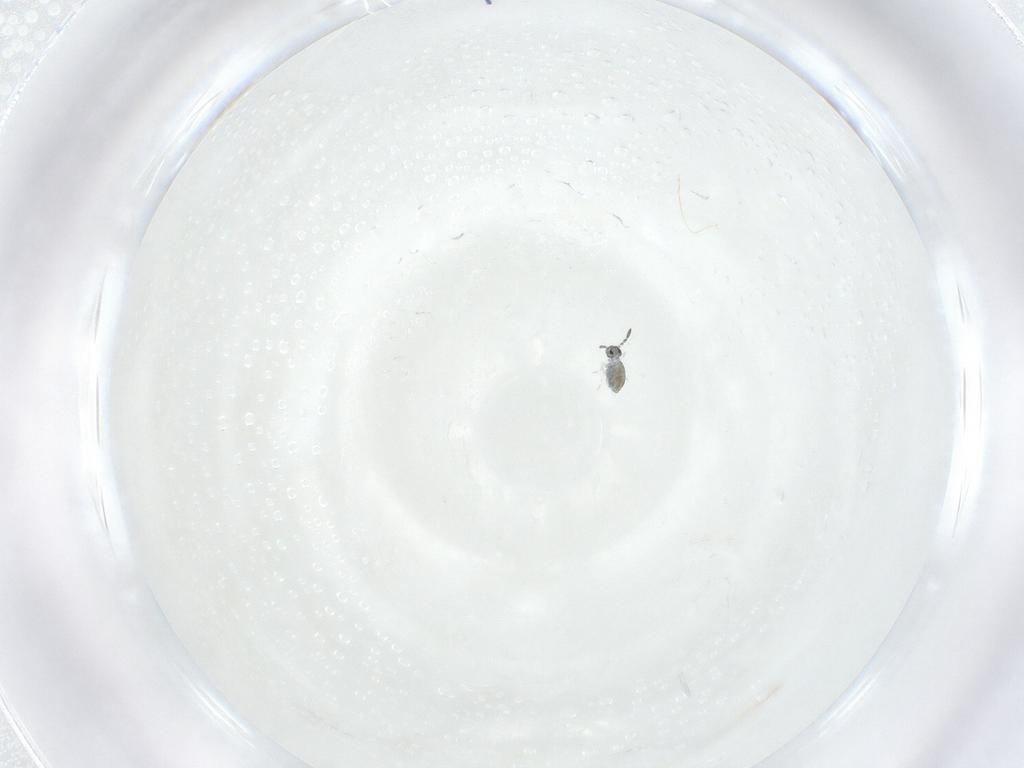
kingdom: Animalia
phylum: Arthropoda
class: Collembola
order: Symphypleona
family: Katiannidae
